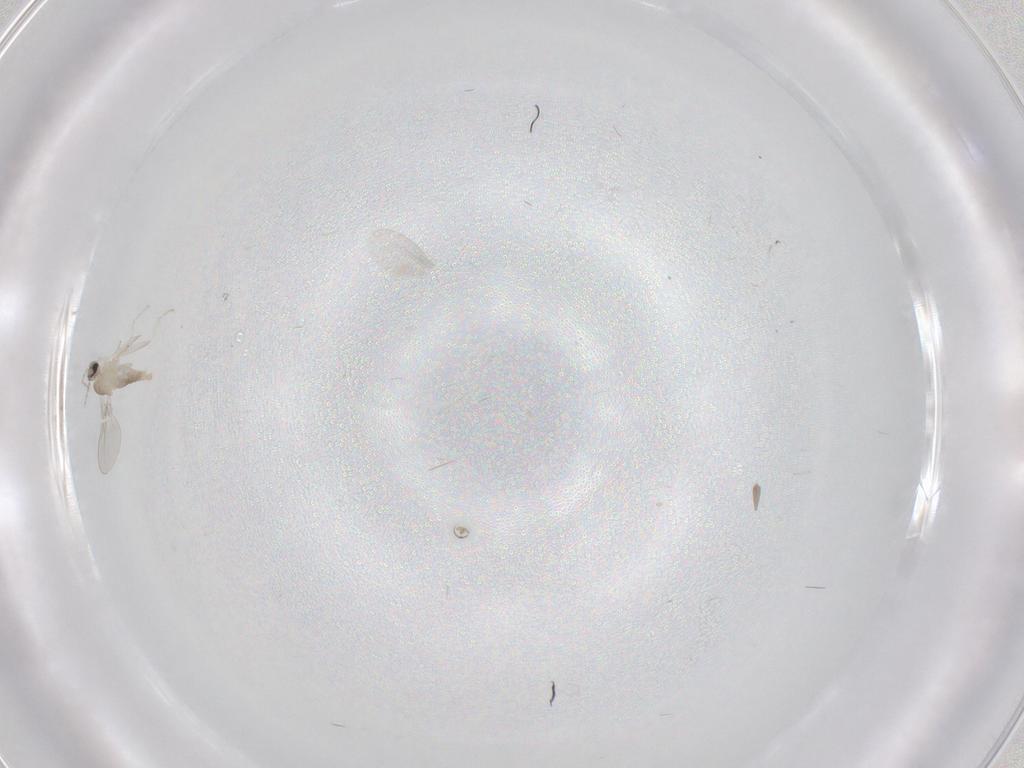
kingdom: Animalia
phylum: Arthropoda
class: Insecta
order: Diptera
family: Cecidomyiidae
